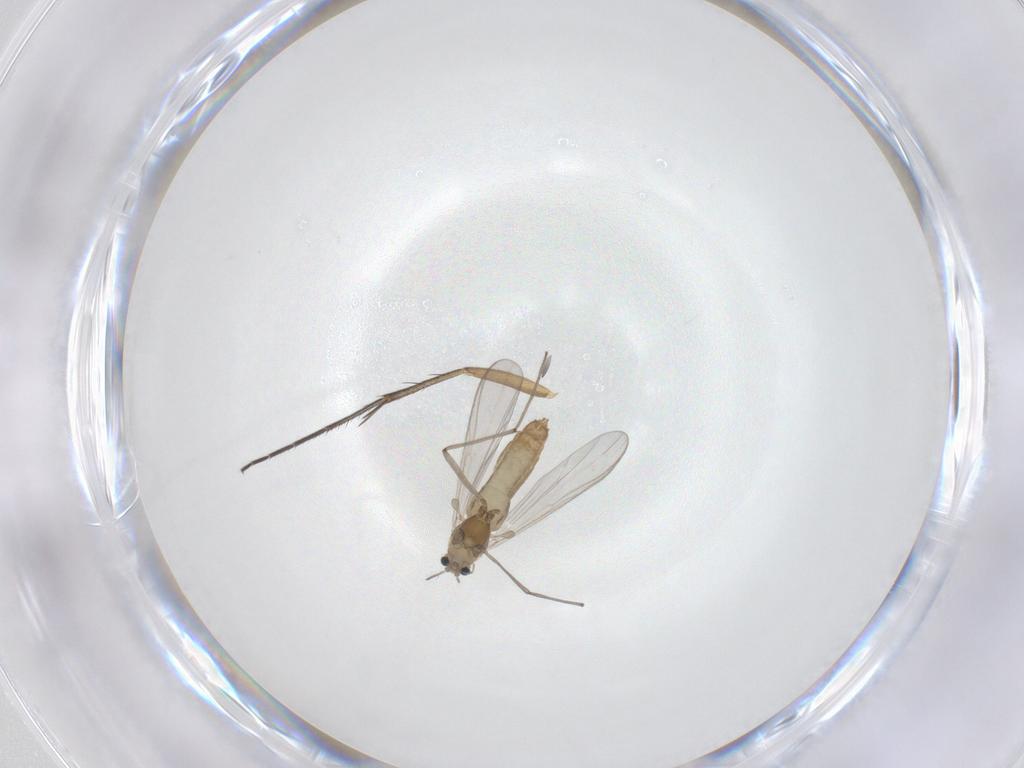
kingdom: Animalia
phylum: Arthropoda
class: Insecta
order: Diptera
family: Chironomidae
